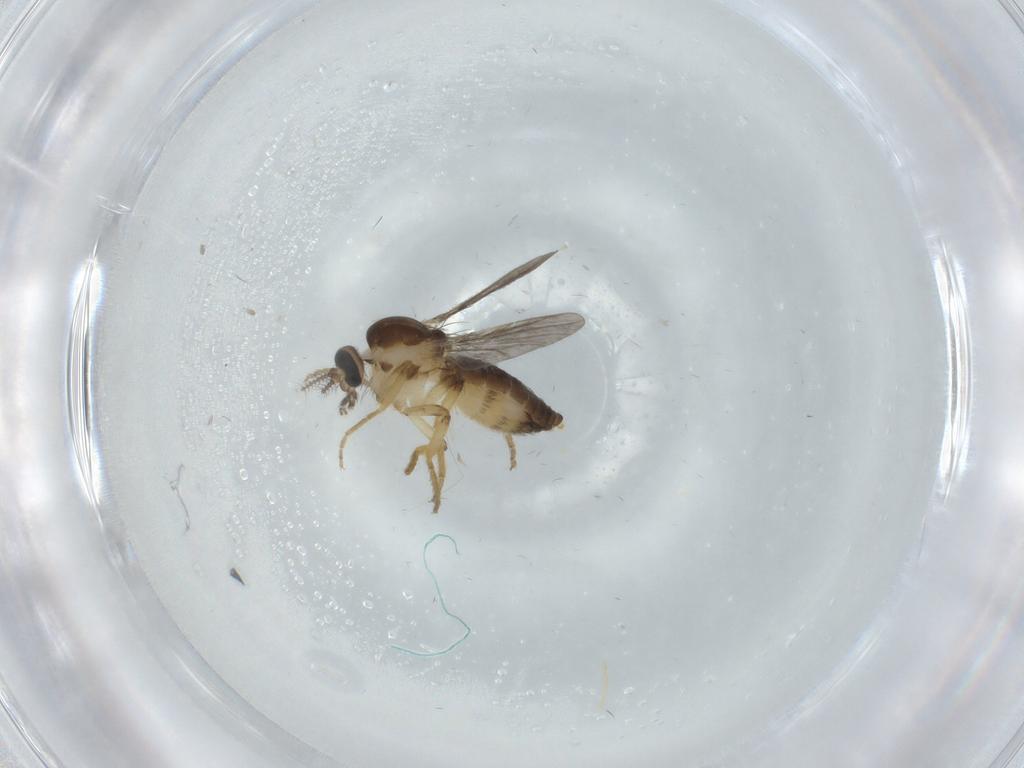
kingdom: Animalia
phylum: Arthropoda
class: Insecta
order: Diptera
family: Ceratopogonidae
